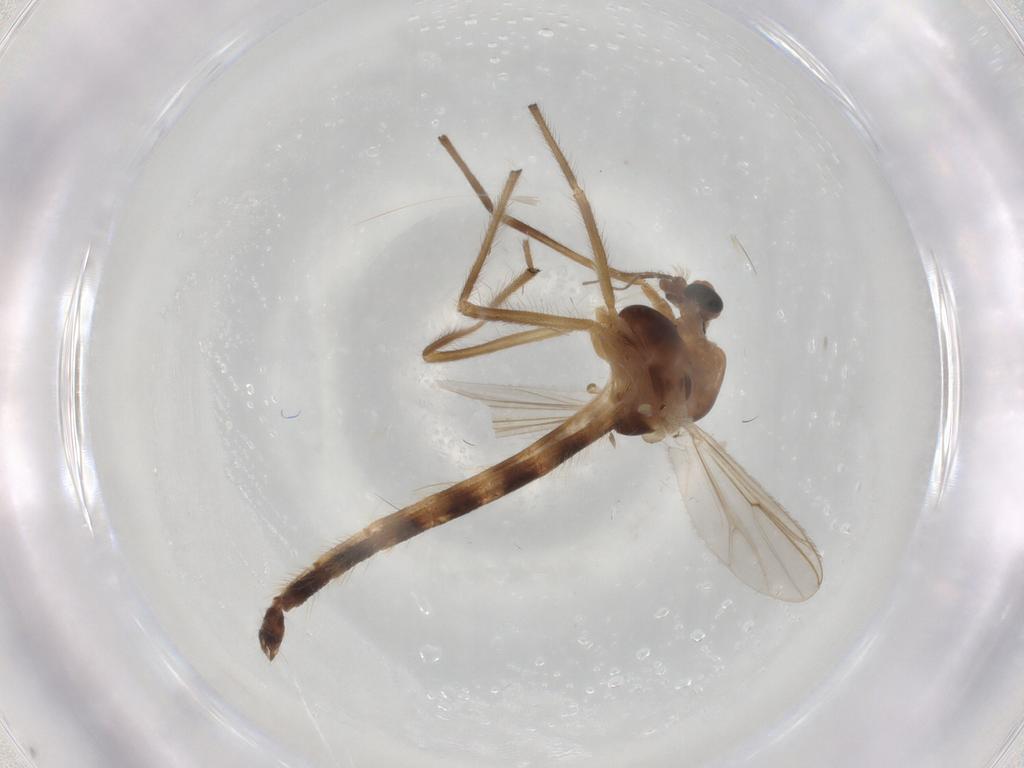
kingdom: Animalia
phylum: Arthropoda
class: Insecta
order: Diptera
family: Chironomidae
